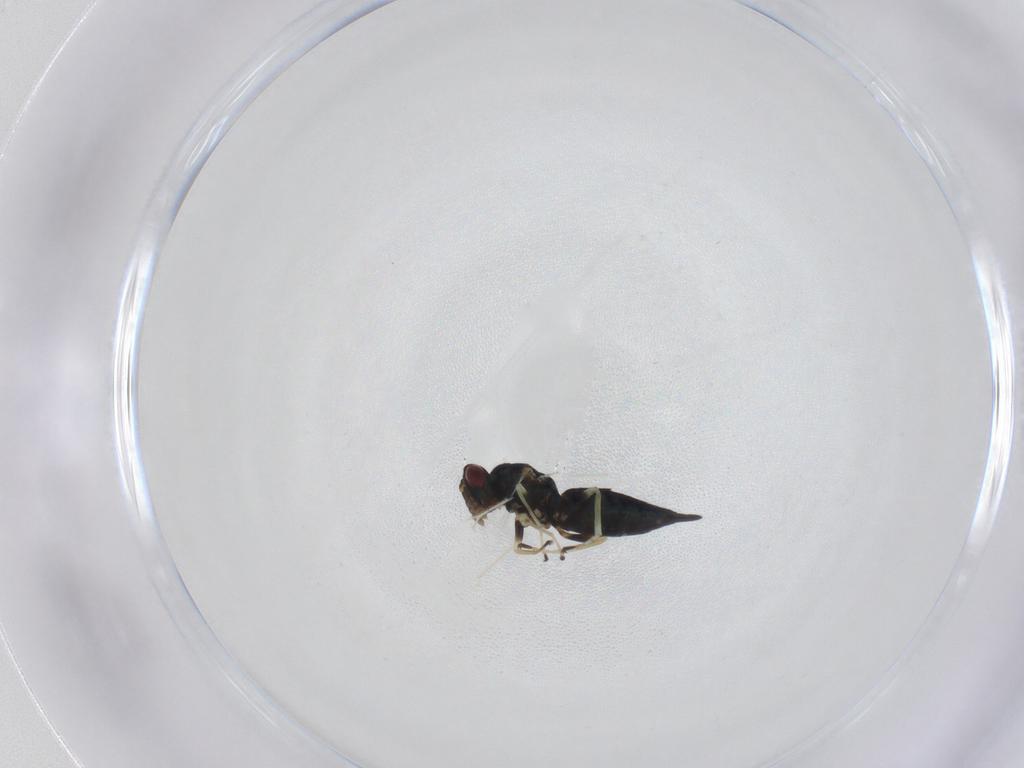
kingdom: Animalia
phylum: Arthropoda
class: Insecta
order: Hymenoptera
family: Eulophidae
